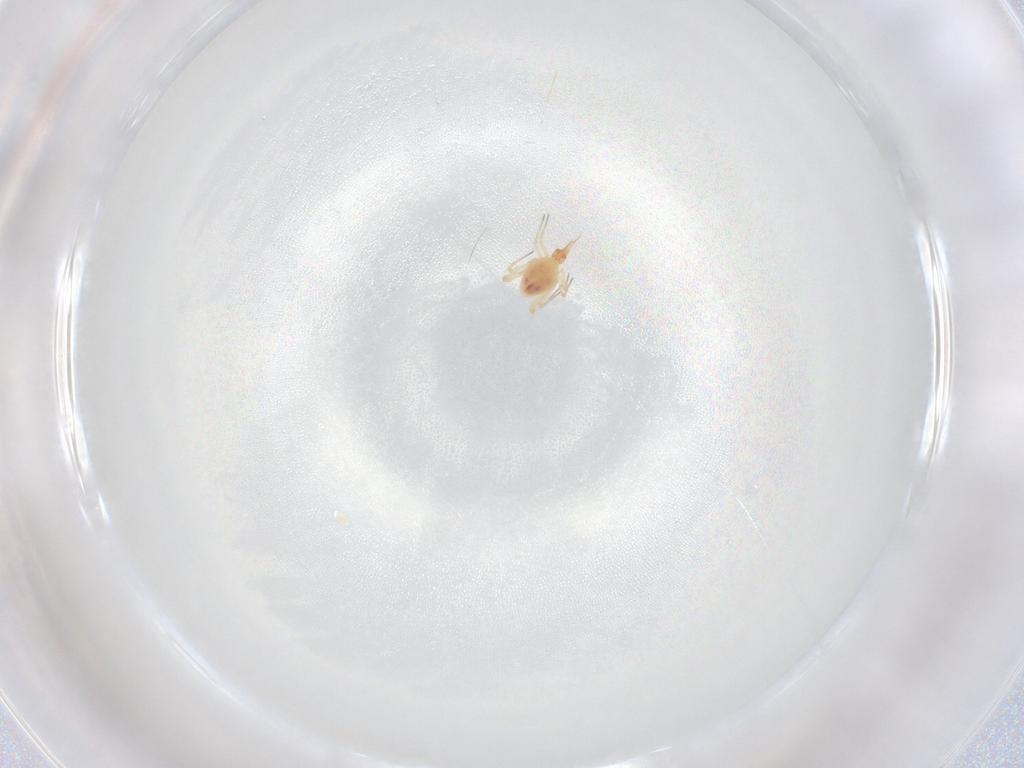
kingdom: Animalia
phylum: Arthropoda
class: Arachnida
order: Trombidiformes
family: Cunaxidae
